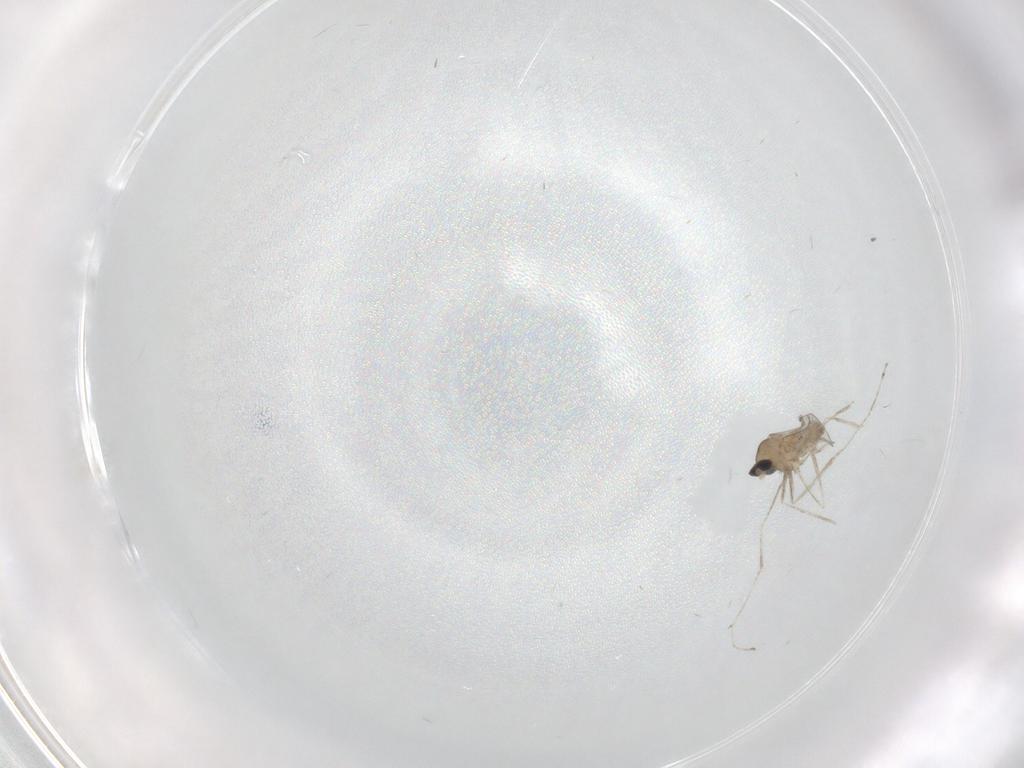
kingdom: Animalia
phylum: Arthropoda
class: Insecta
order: Diptera
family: Cecidomyiidae
